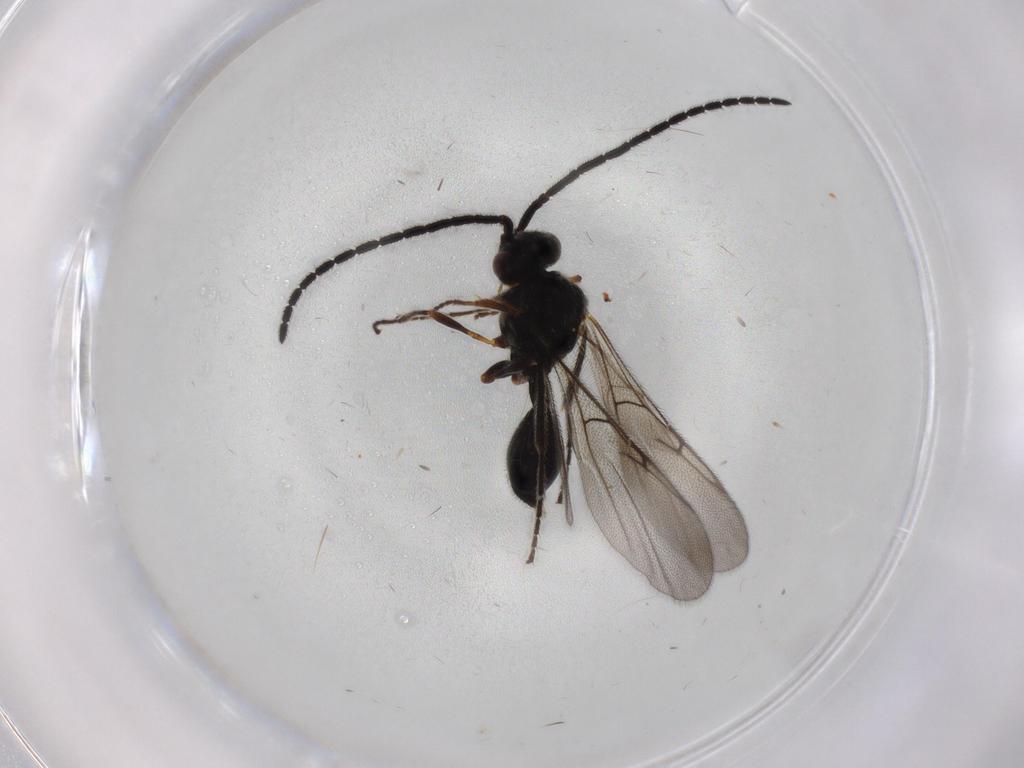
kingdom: Animalia
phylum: Arthropoda
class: Insecta
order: Hymenoptera
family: Diapriidae
